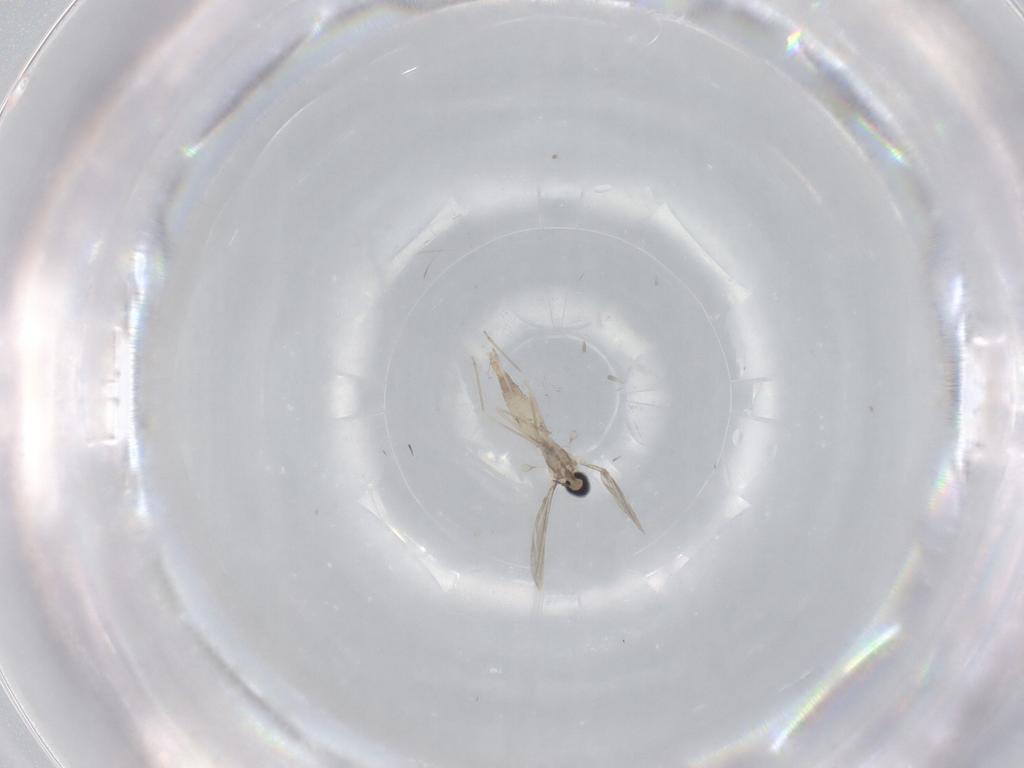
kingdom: Animalia
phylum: Arthropoda
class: Insecta
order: Diptera
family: Cecidomyiidae
